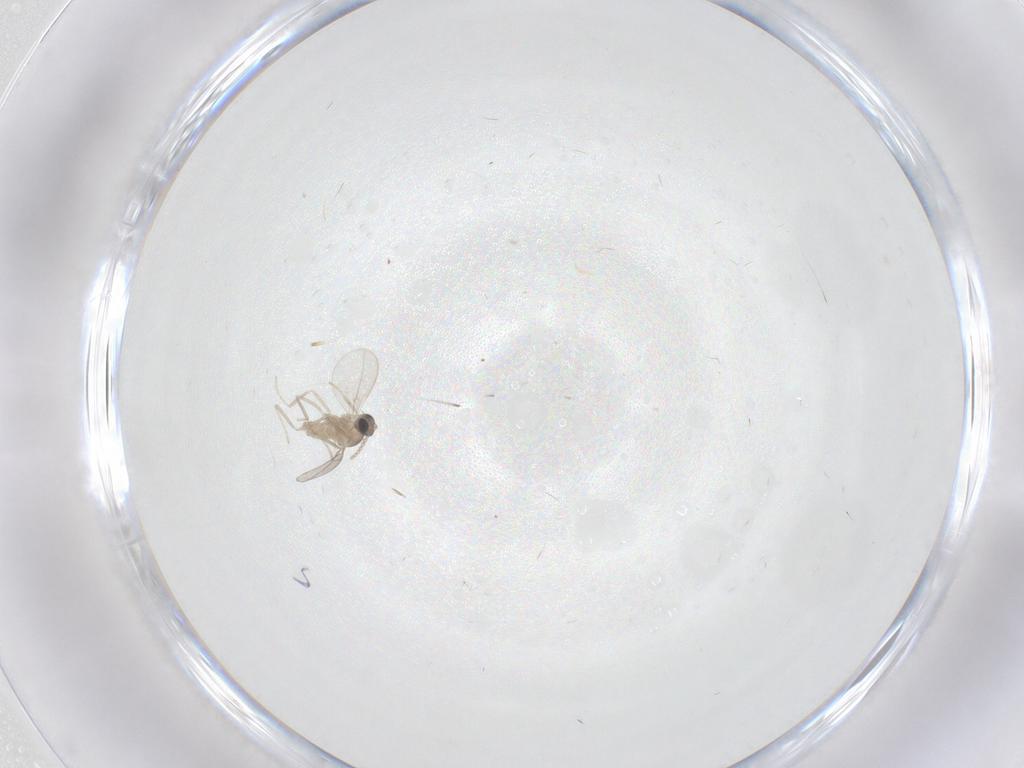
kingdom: Animalia
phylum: Arthropoda
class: Insecta
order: Diptera
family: Cecidomyiidae
